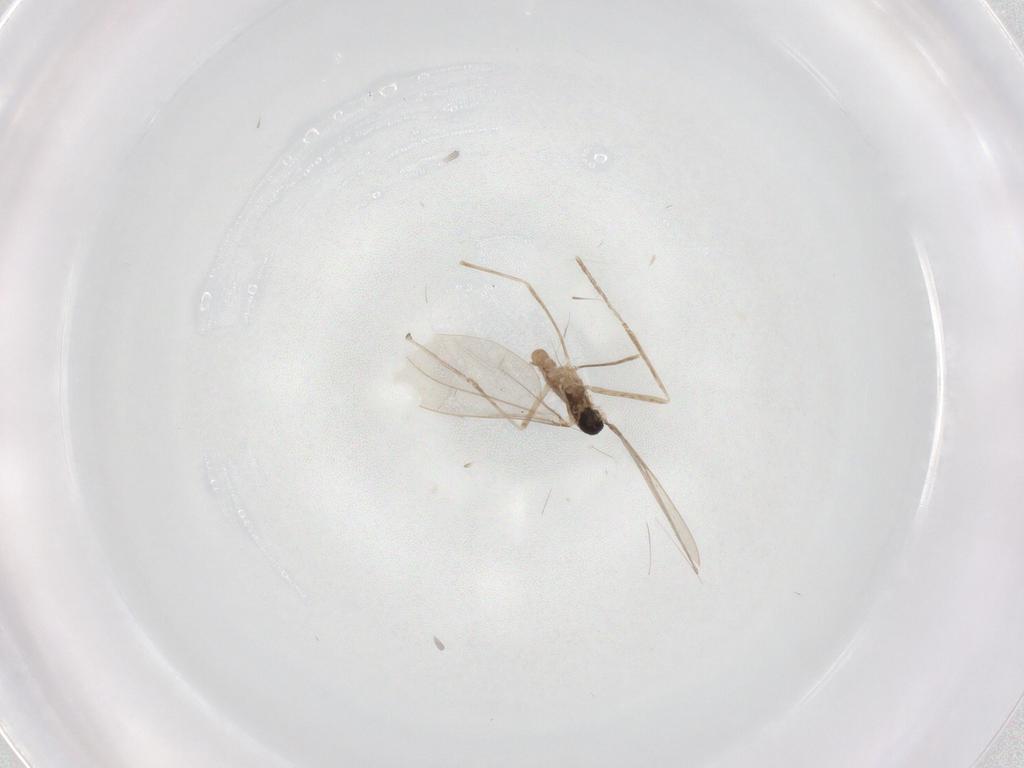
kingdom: Animalia
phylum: Arthropoda
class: Insecta
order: Diptera
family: Cecidomyiidae
